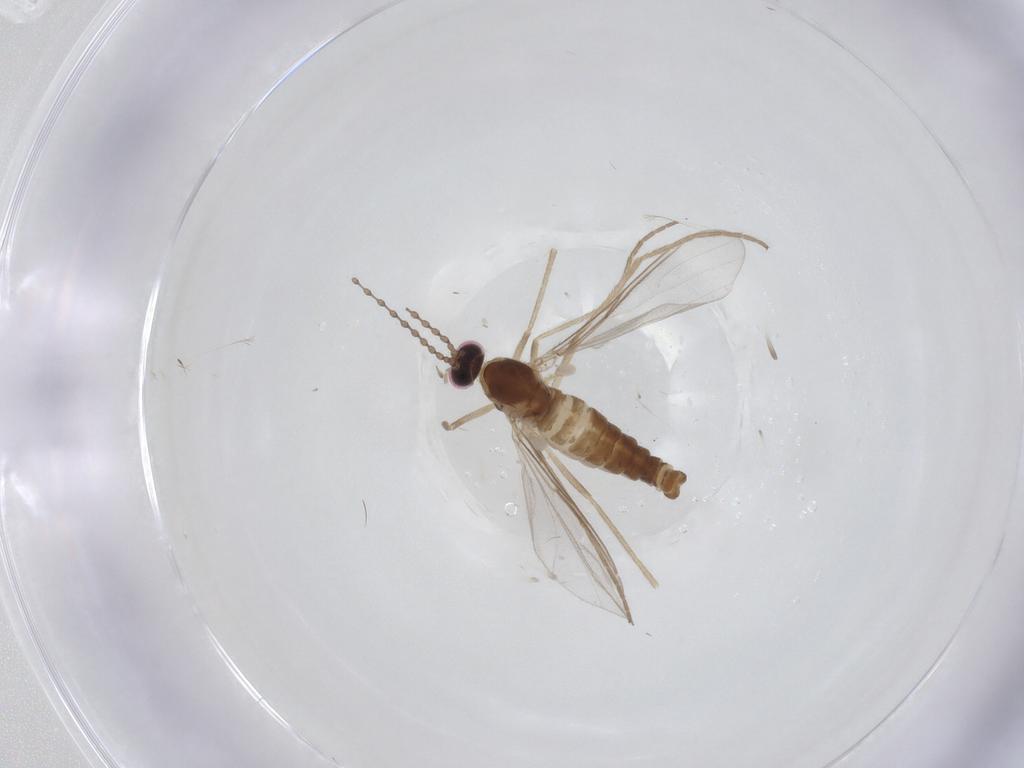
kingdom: Animalia
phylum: Arthropoda
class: Insecta
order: Diptera
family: Cecidomyiidae
